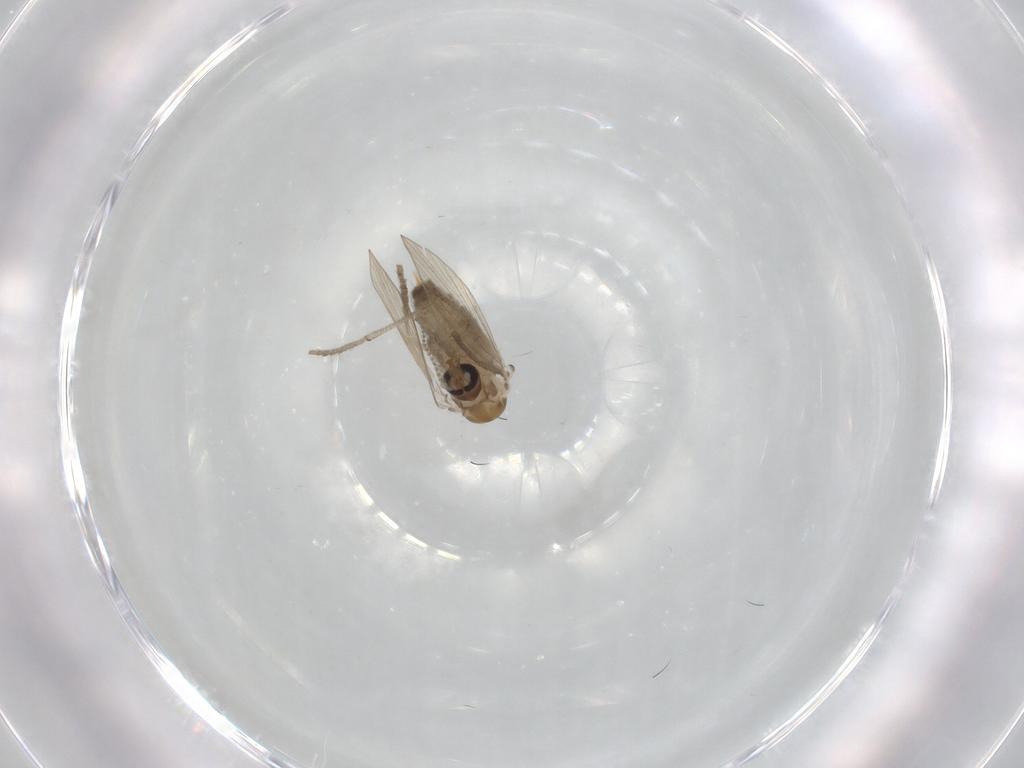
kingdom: Animalia
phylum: Arthropoda
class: Insecta
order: Diptera
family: Psychodidae
